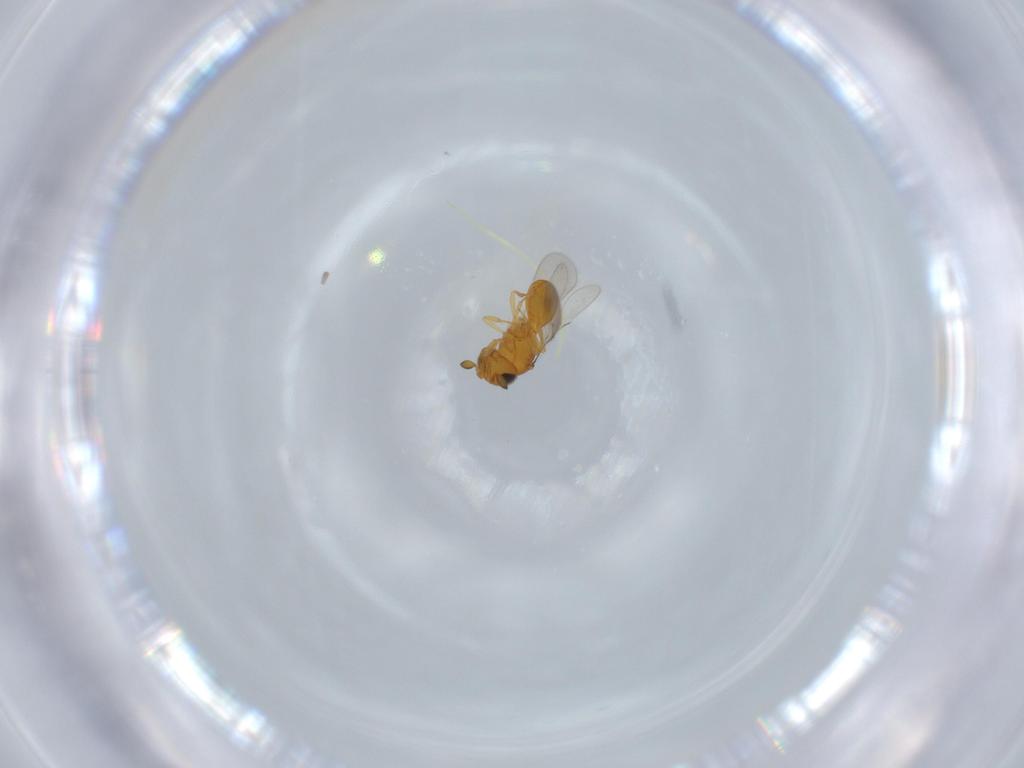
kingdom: Animalia
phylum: Arthropoda
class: Insecta
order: Hymenoptera
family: Scelionidae
